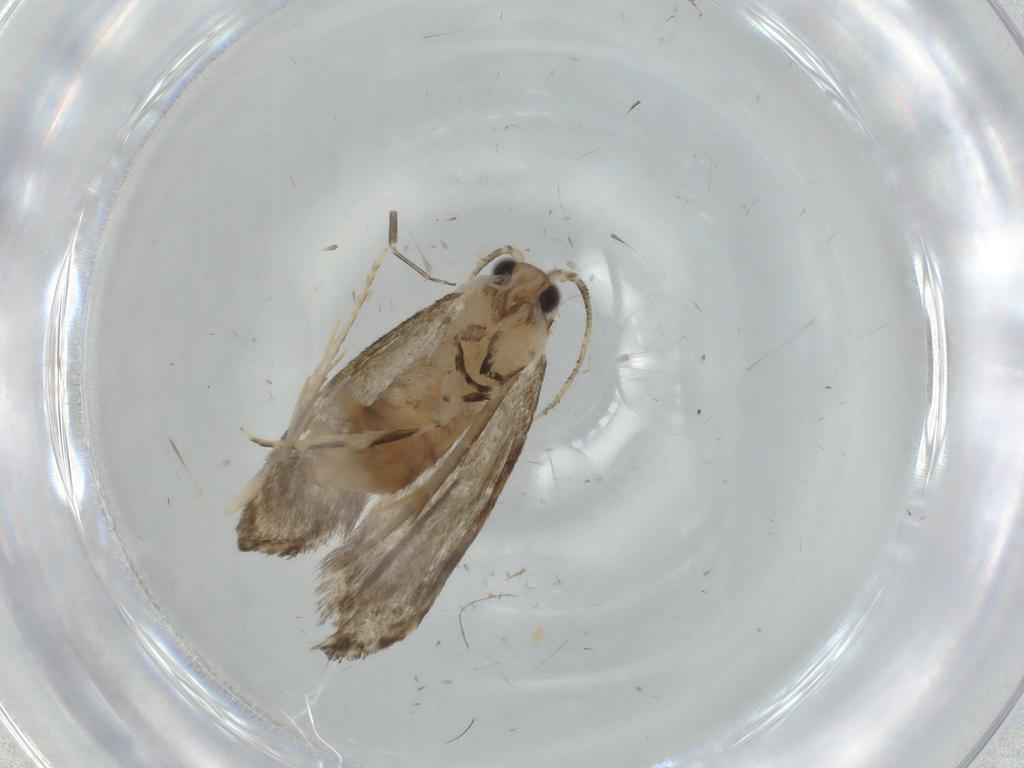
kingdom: Animalia
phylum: Arthropoda
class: Insecta
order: Lepidoptera
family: Tineidae
